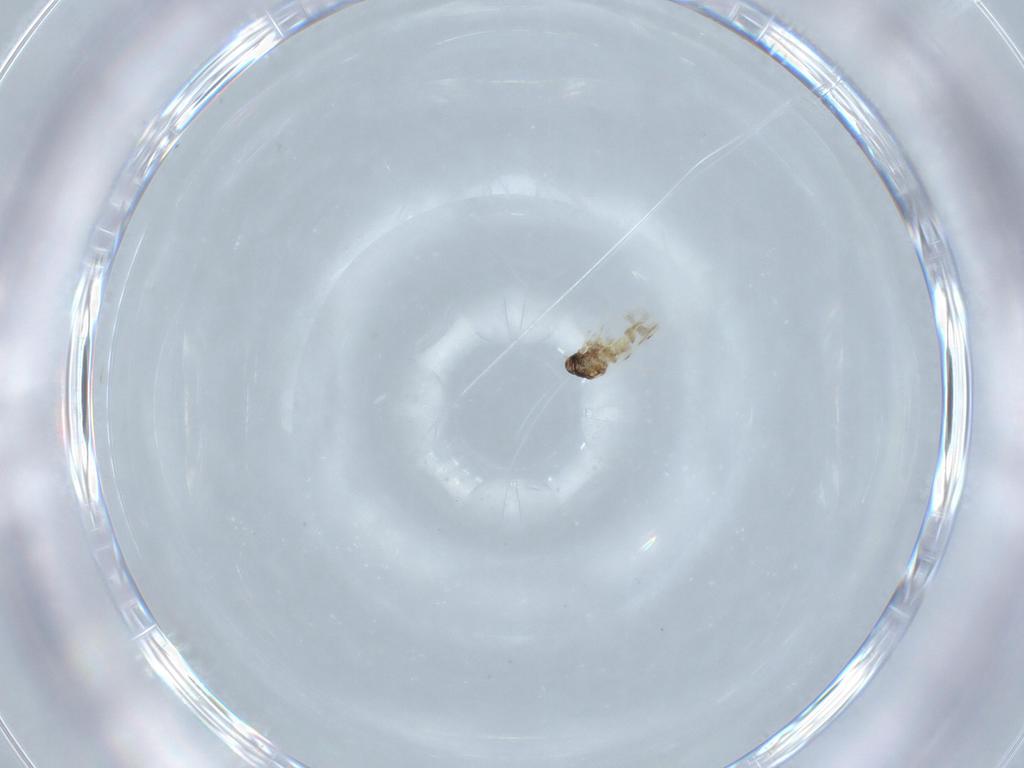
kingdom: Animalia
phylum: Arthropoda
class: Insecta
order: Hemiptera
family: Aleyrodidae
